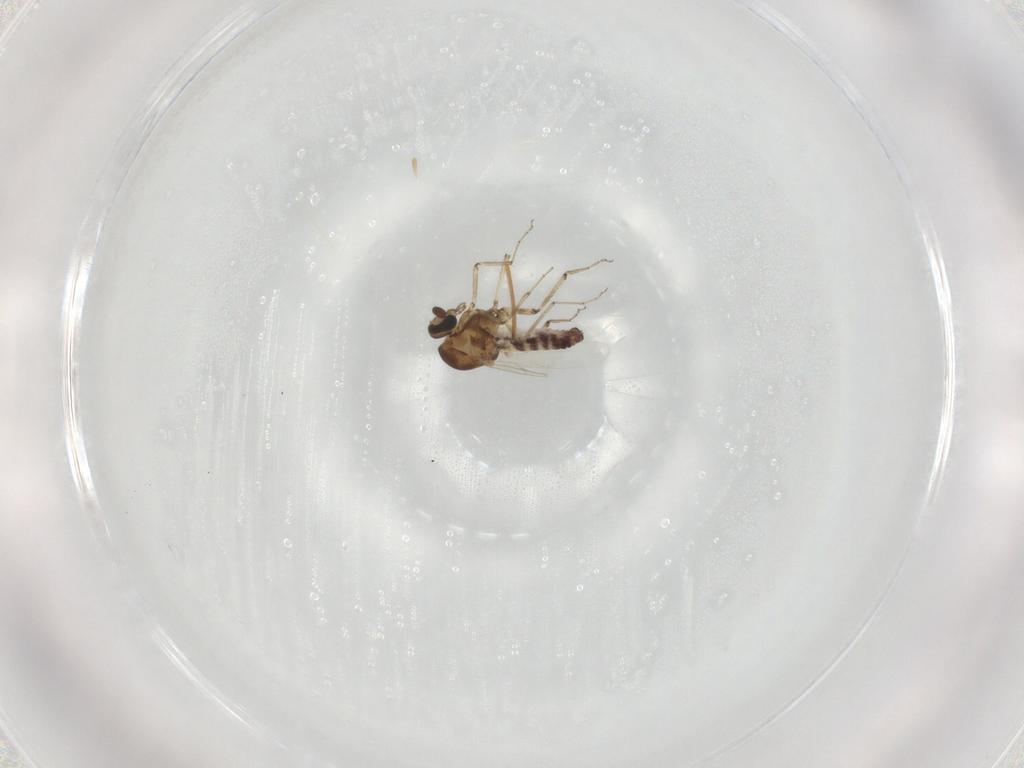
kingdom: Animalia
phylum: Arthropoda
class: Insecta
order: Diptera
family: Ceratopogonidae
